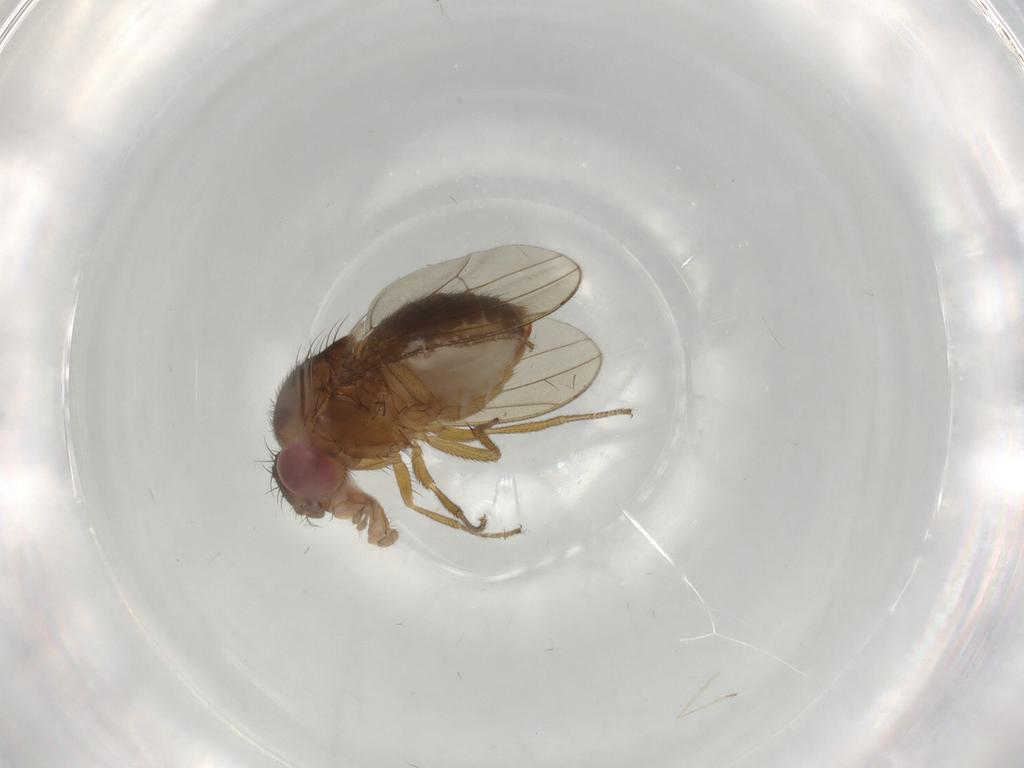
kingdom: Animalia
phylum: Arthropoda
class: Insecta
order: Diptera
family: Drosophilidae
